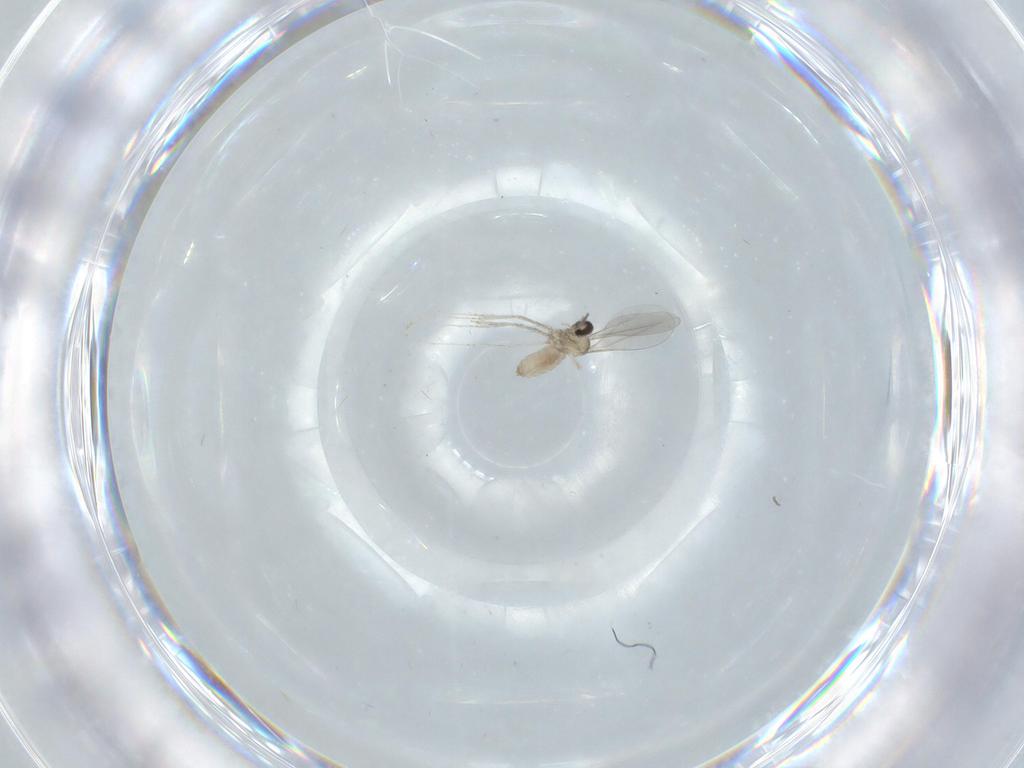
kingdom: Animalia
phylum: Arthropoda
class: Insecta
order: Diptera
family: Cecidomyiidae
